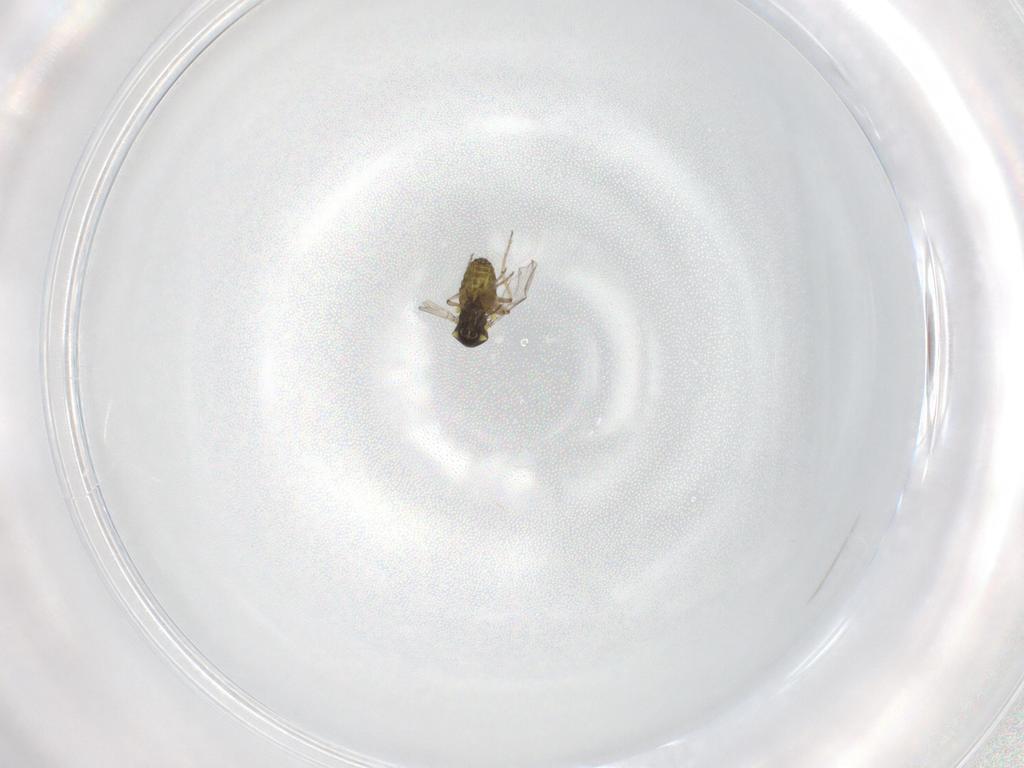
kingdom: Animalia
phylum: Arthropoda
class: Insecta
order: Diptera
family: Ceratopogonidae
